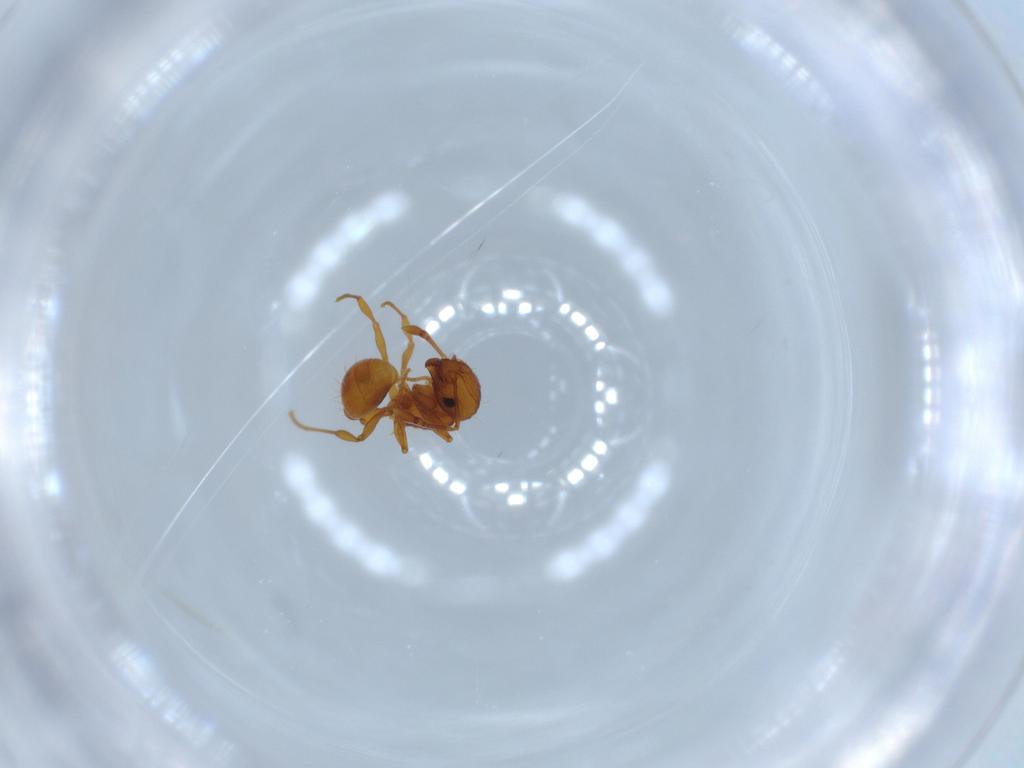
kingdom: Animalia
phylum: Arthropoda
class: Insecta
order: Hymenoptera
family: Formicidae
